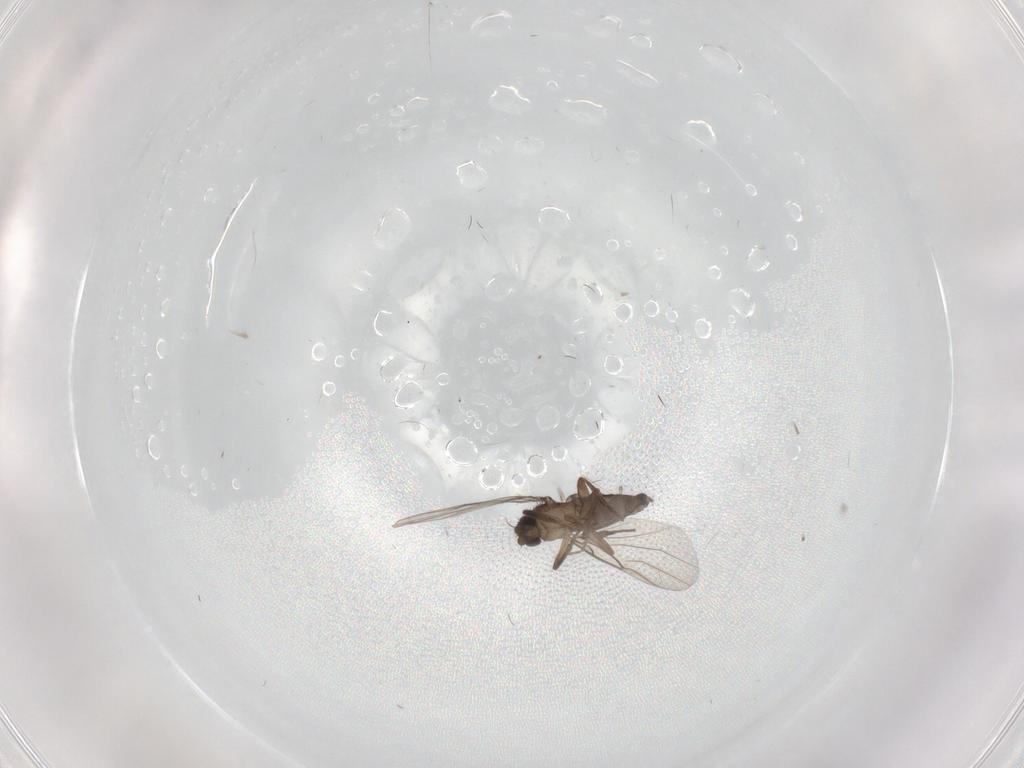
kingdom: Animalia
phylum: Arthropoda
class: Insecta
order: Diptera
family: Phoridae
